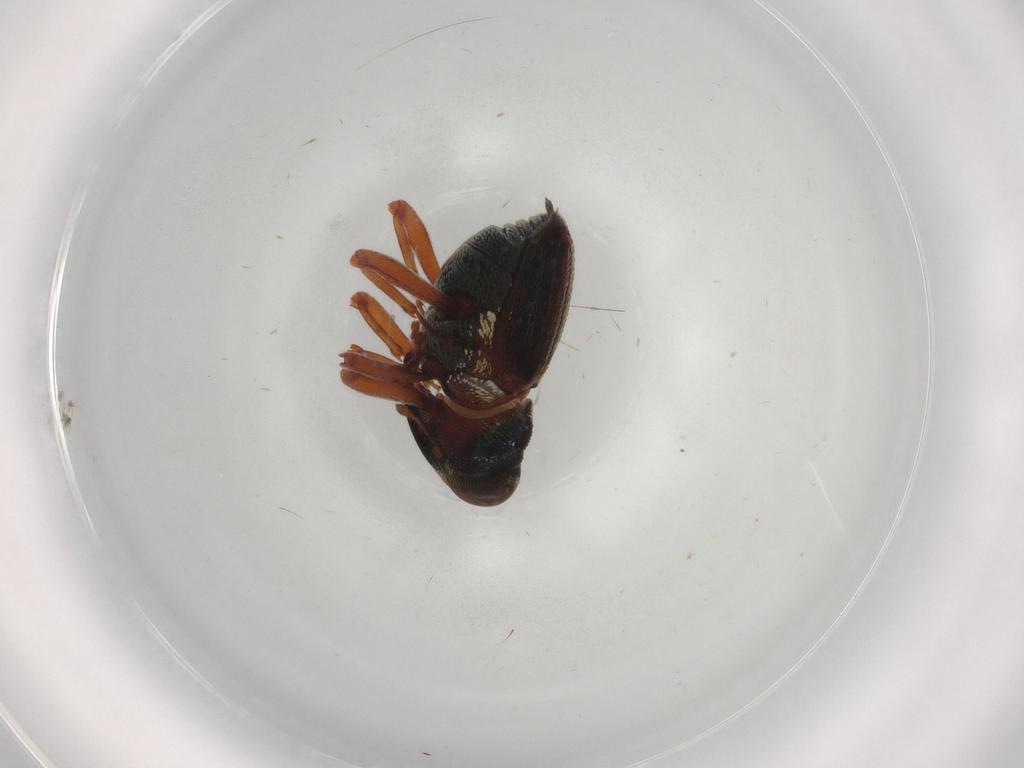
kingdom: Animalia
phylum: Arthropoda
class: Insecta
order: Coleoptera
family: Curculionidae
